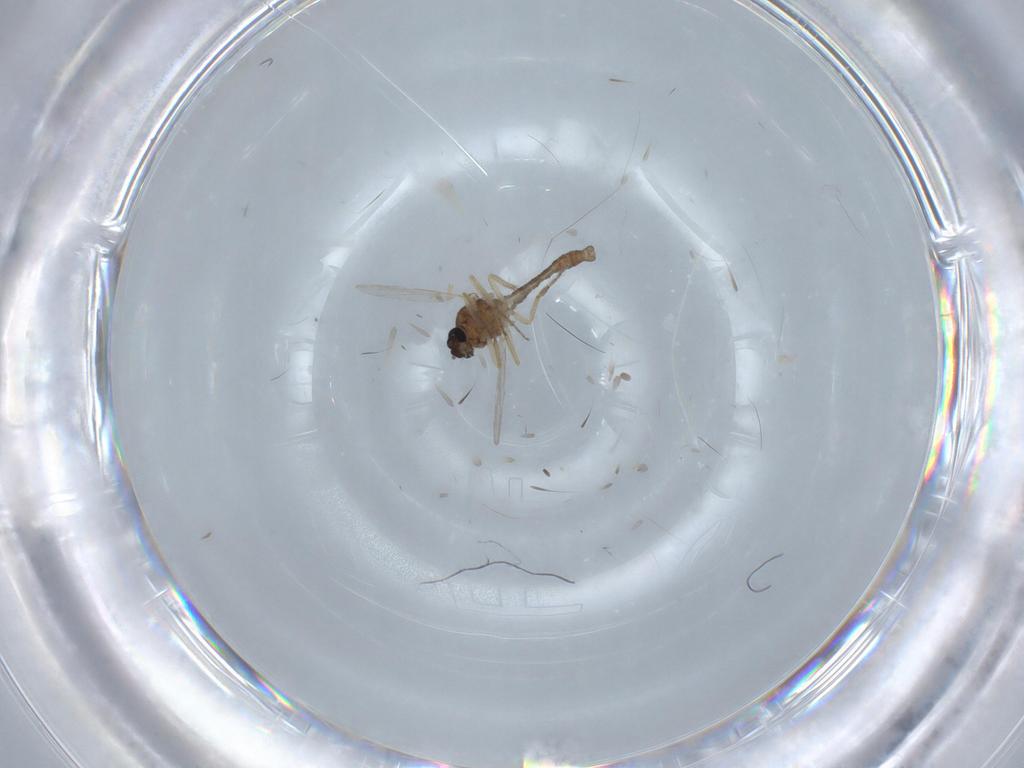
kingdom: Animalia
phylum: Arthropoda
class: Insecta
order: Diptera
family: Ceratopogonidae
